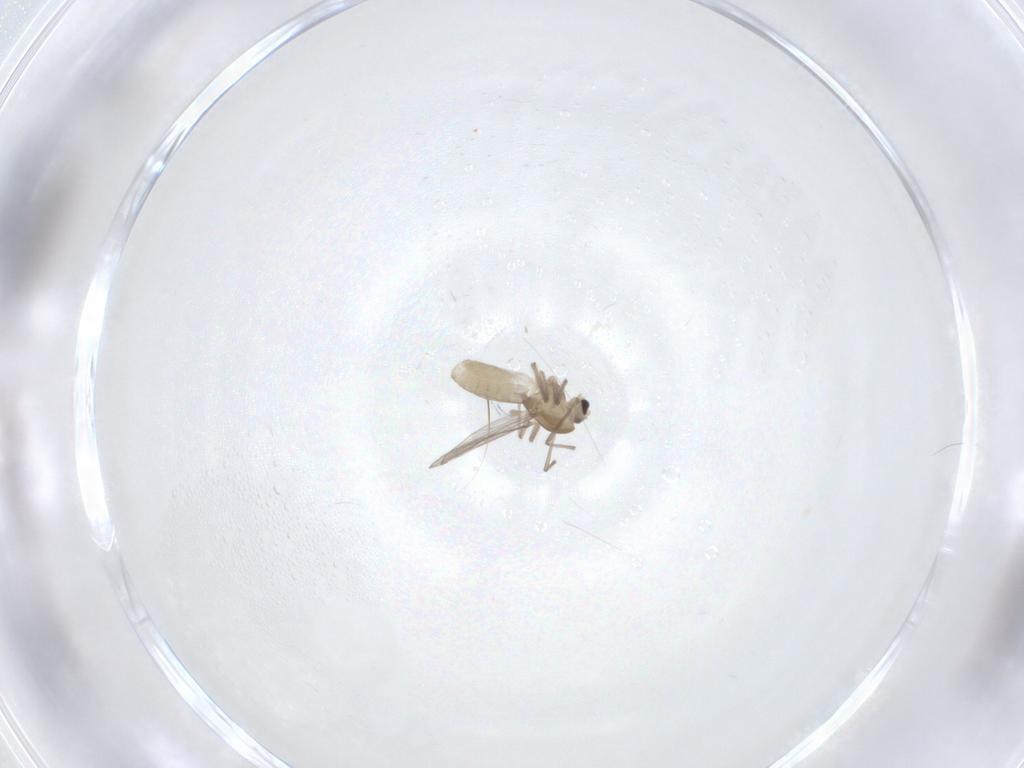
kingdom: Animalia
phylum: Arthropoda
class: Insecta
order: Diptera
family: Chironomidae
